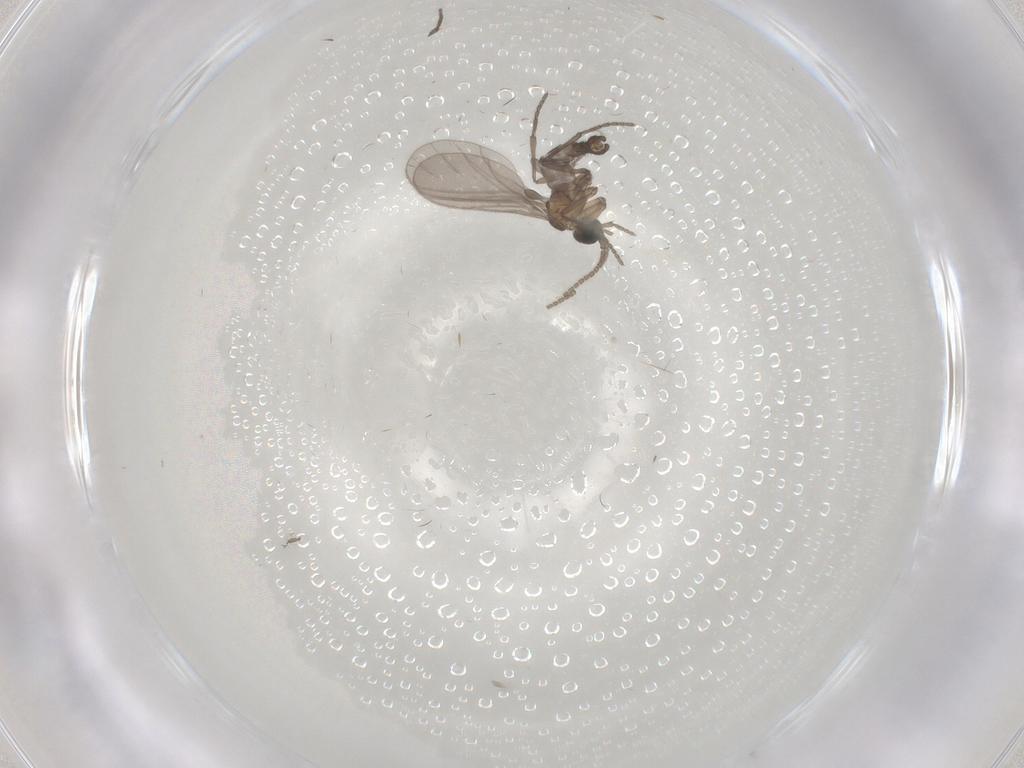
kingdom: Animalia
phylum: Arthropoda
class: Insecta
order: Diptera
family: Sciaridae
